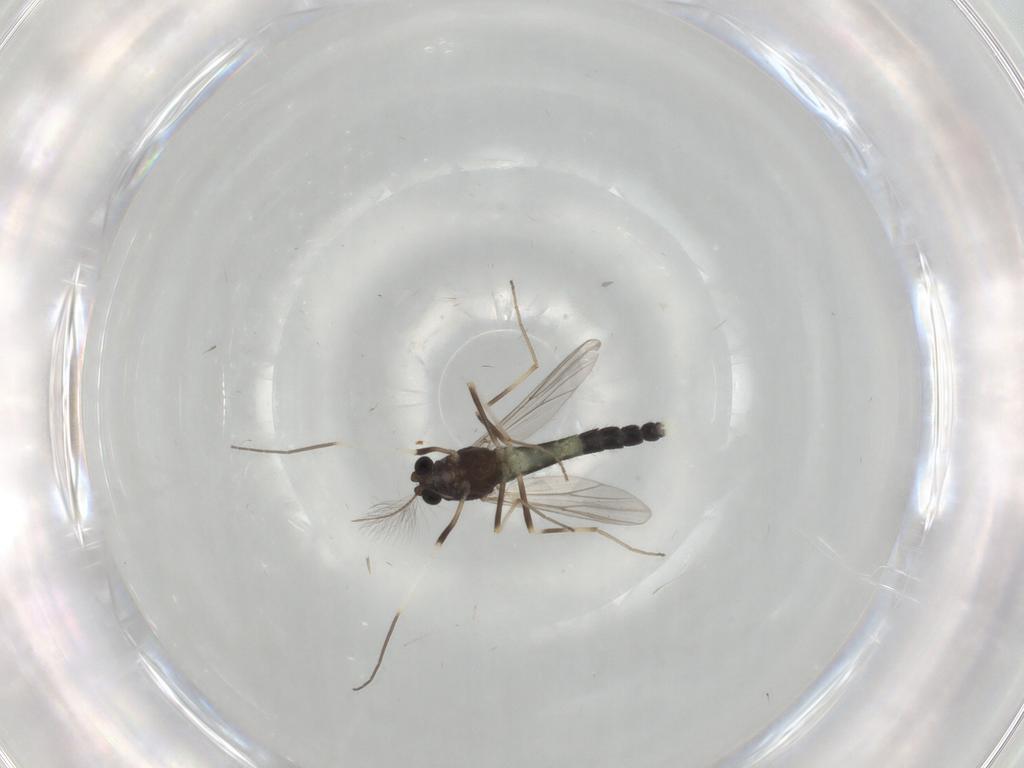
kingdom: Animalia
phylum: Arthropoda
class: Insecta
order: Diptera
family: Chironomidae
